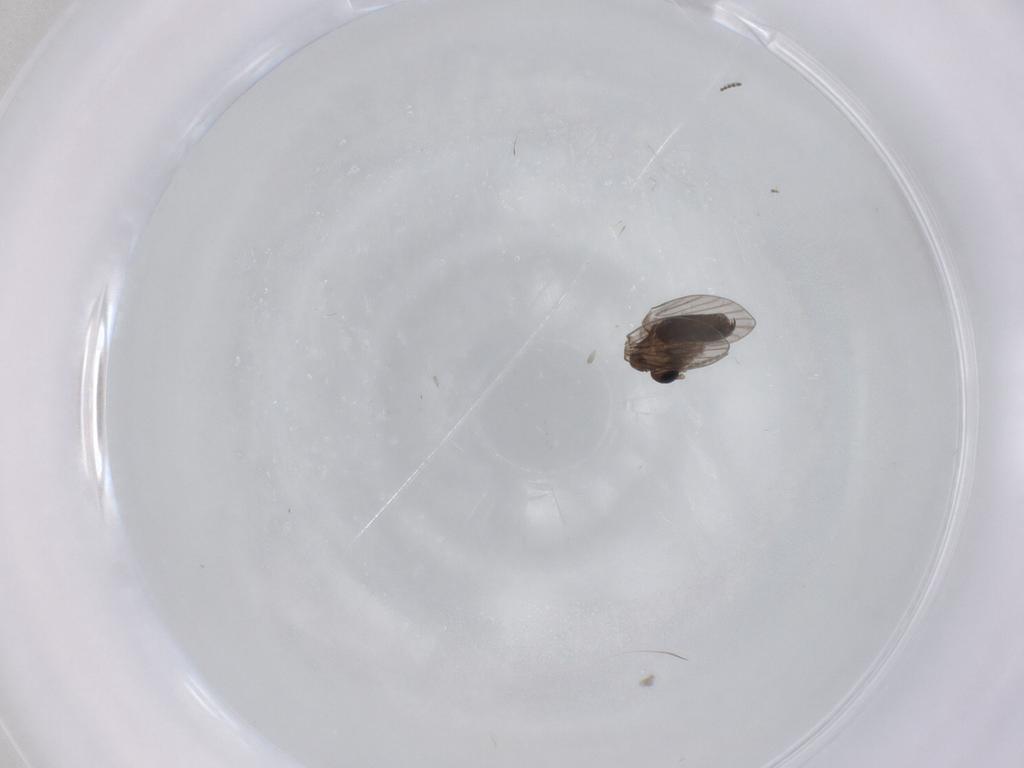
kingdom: Animalia
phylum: Arthropoda
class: Insecta
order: Diptera
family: Cecidomyiidae
